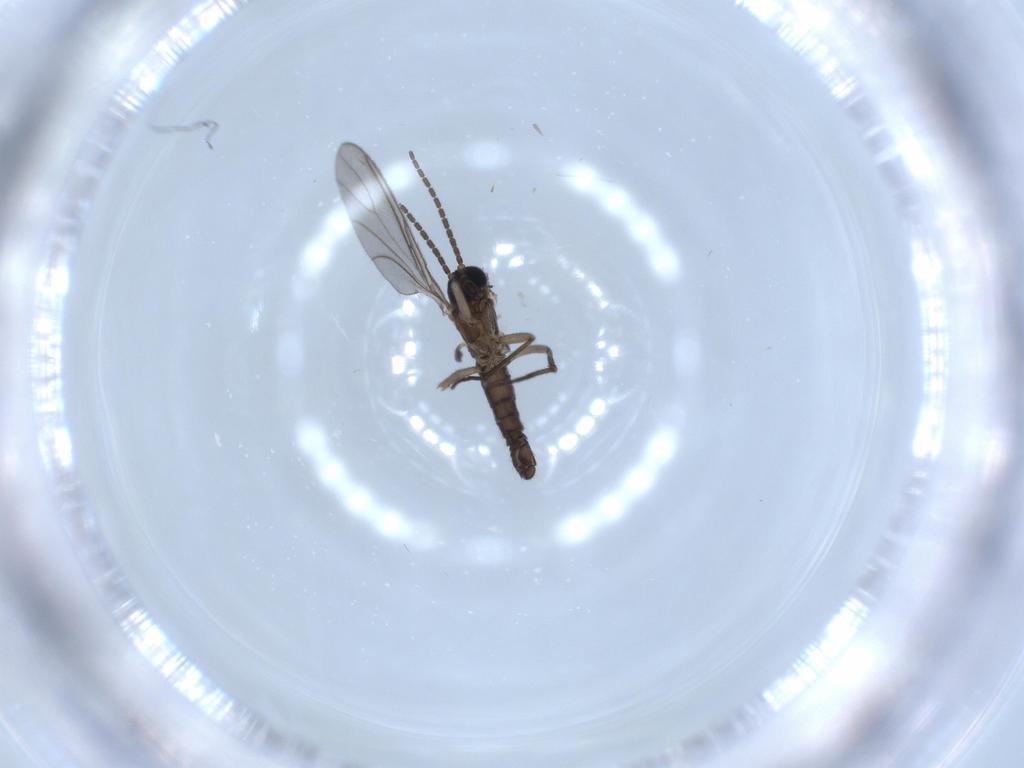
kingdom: Animalia
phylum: Arthropoda
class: Insecta
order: Diptera
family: Sciaridae
